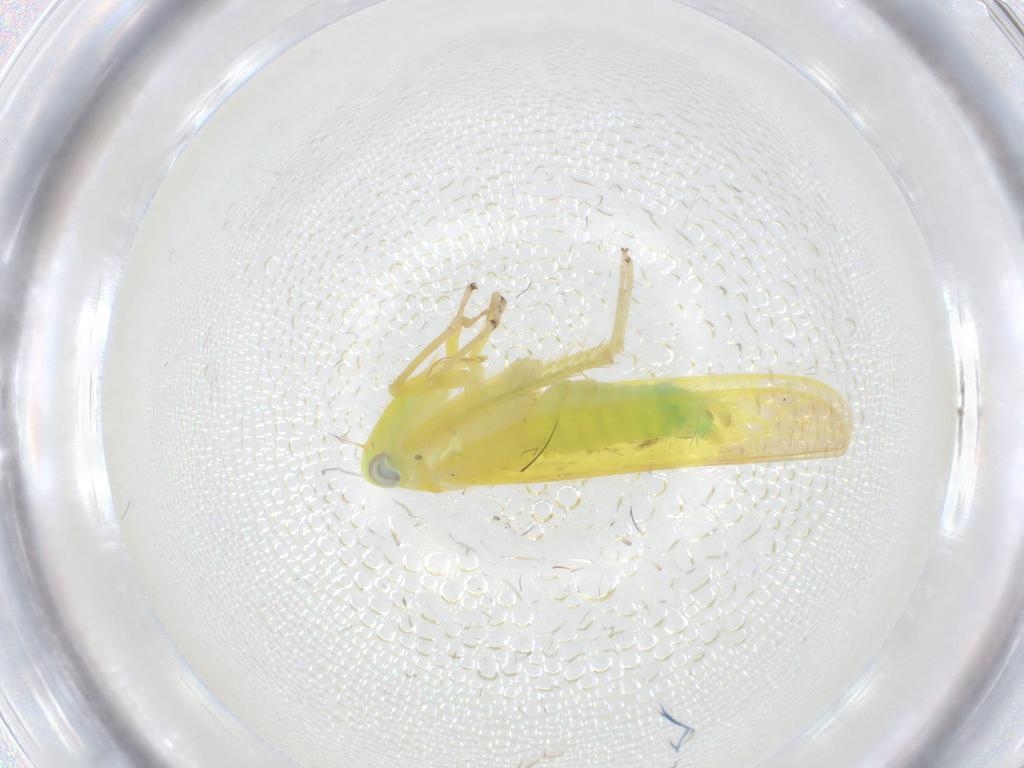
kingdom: Animalia
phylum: Arthropoda
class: Insecta
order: Hemiptera
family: Cicadellidae
